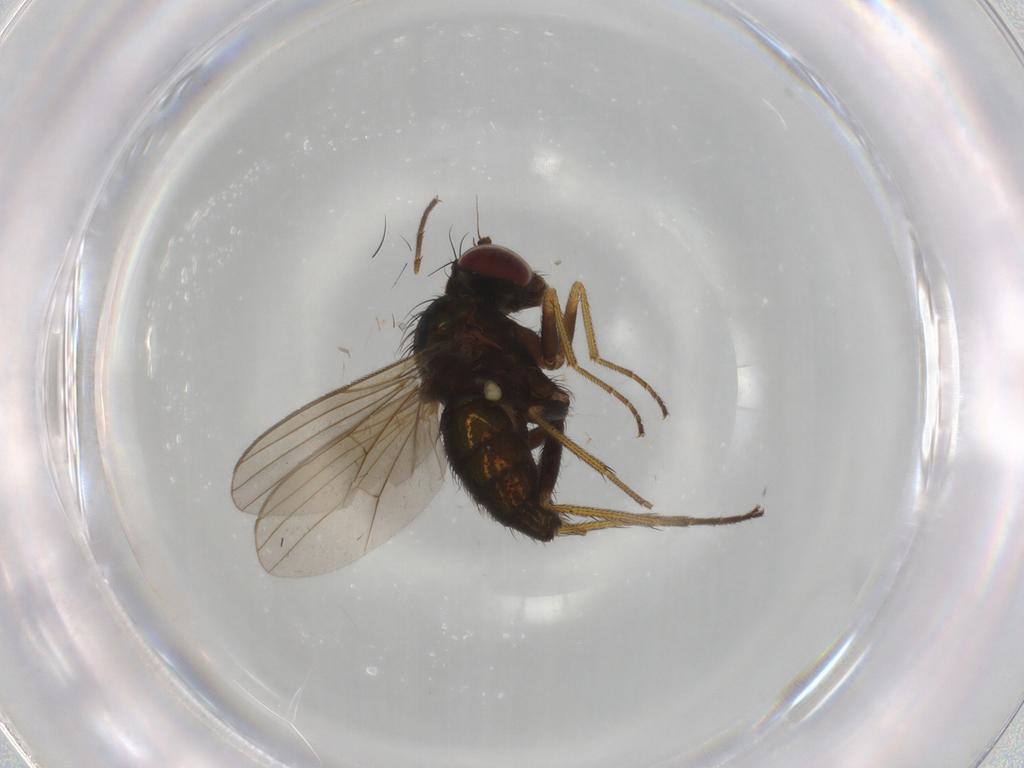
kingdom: Animalia
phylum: Arthropoda
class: Insecta
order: Diptera
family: Dolichopodidae
